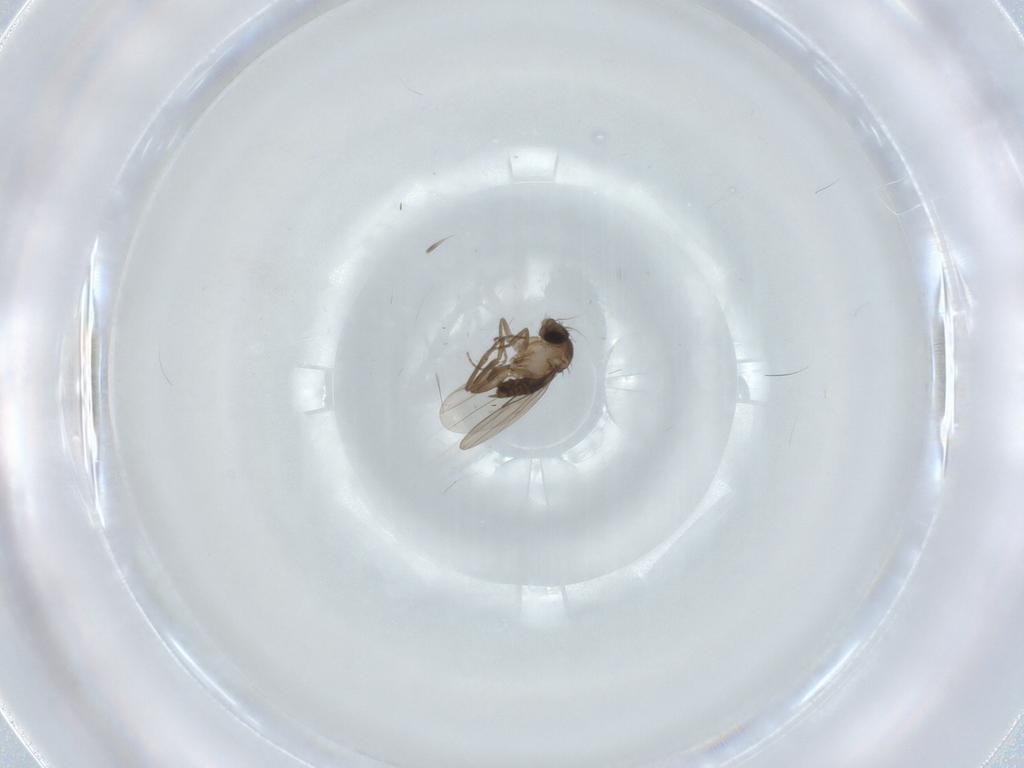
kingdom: Animalia
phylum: Arthropoda
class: Insecta
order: Diptera
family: Phoridae
